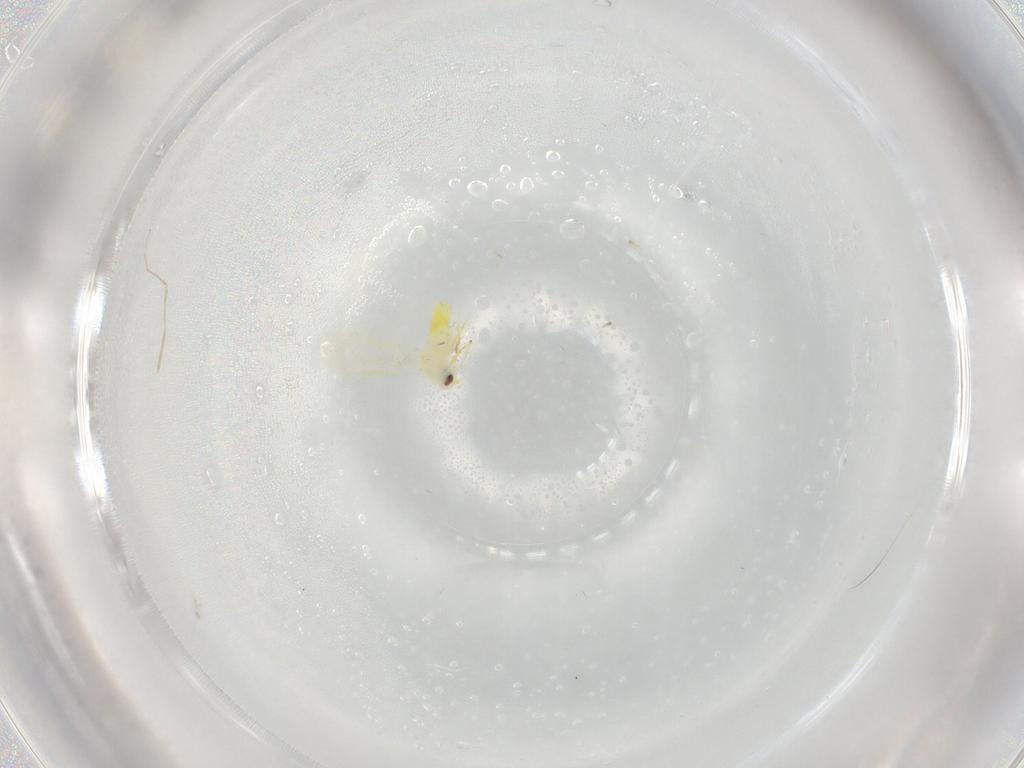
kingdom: Animalia
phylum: Arthropoda
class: Insecta
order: Hemiptera
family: Aleyrodidae
